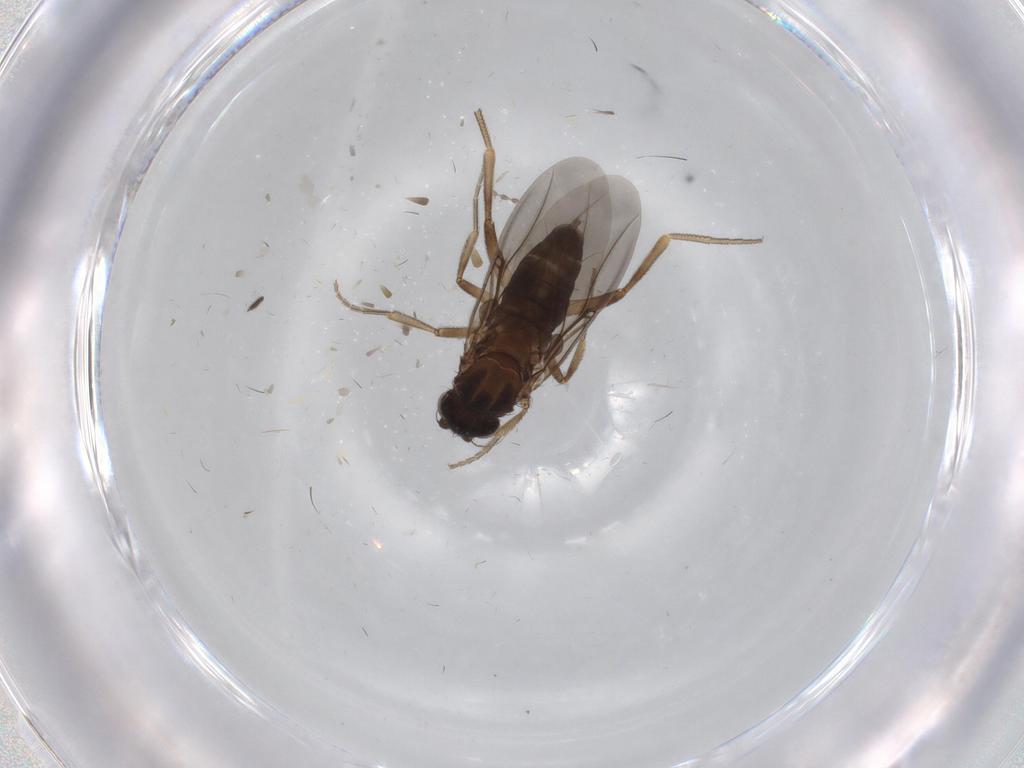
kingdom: Animalia
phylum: Arthropoda
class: Insecta
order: Diptera
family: Phoridae
